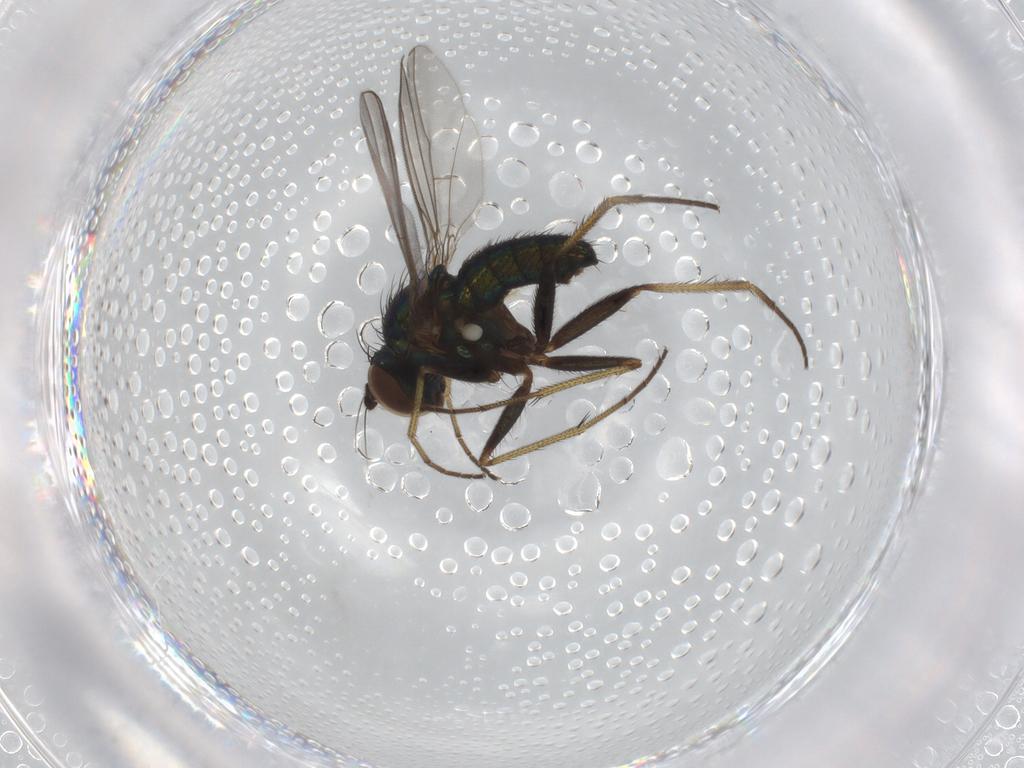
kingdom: Animalia
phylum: Arthropoda
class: Insecta
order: Diptera
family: Dolichopodidae
